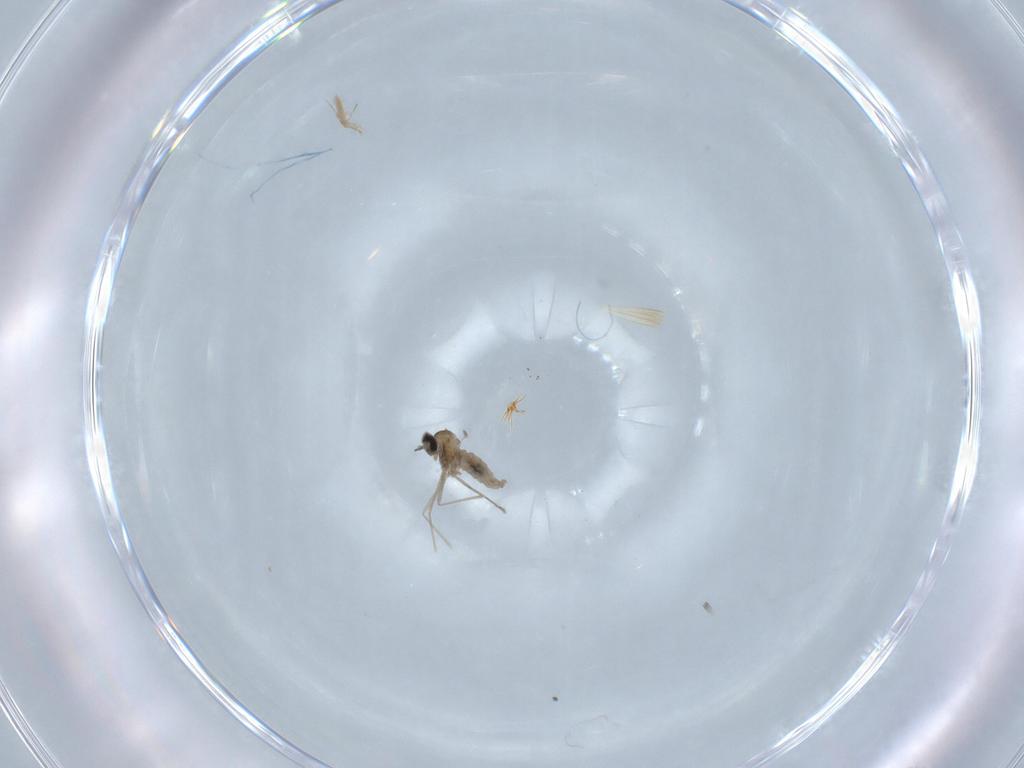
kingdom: Animalia
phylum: Arthropoda
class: Insecta
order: Diptera
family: Cecidomyiidae
